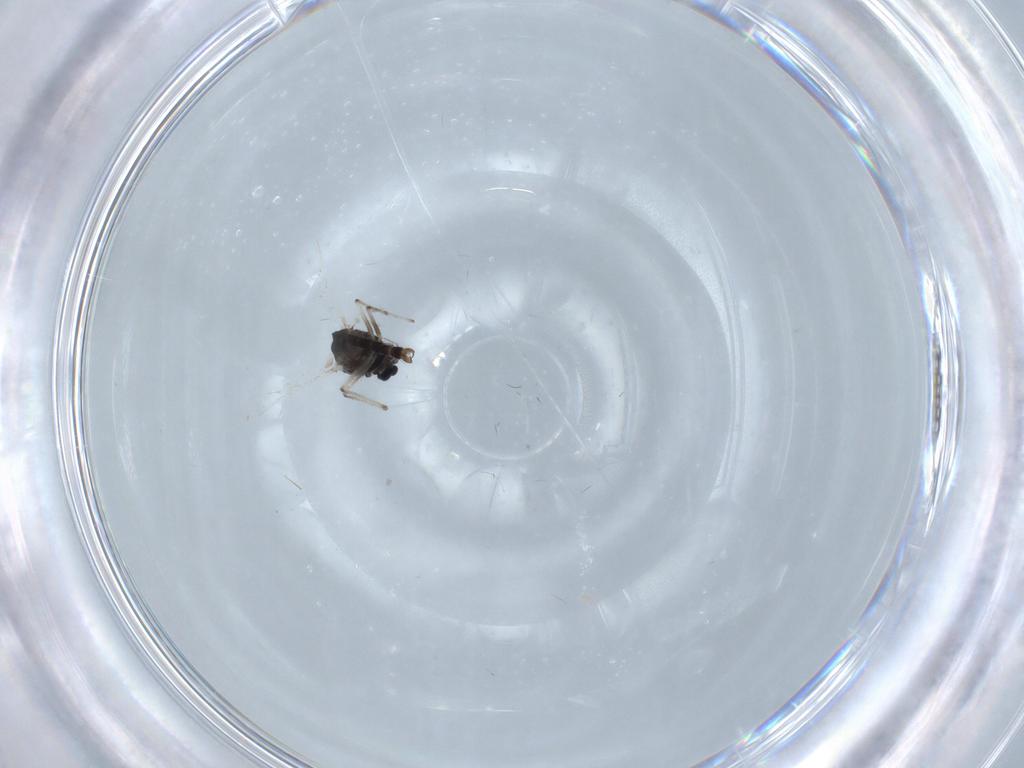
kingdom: Animalia
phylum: Arthropoda
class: Insecta
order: Diptera
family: Chironomidae
